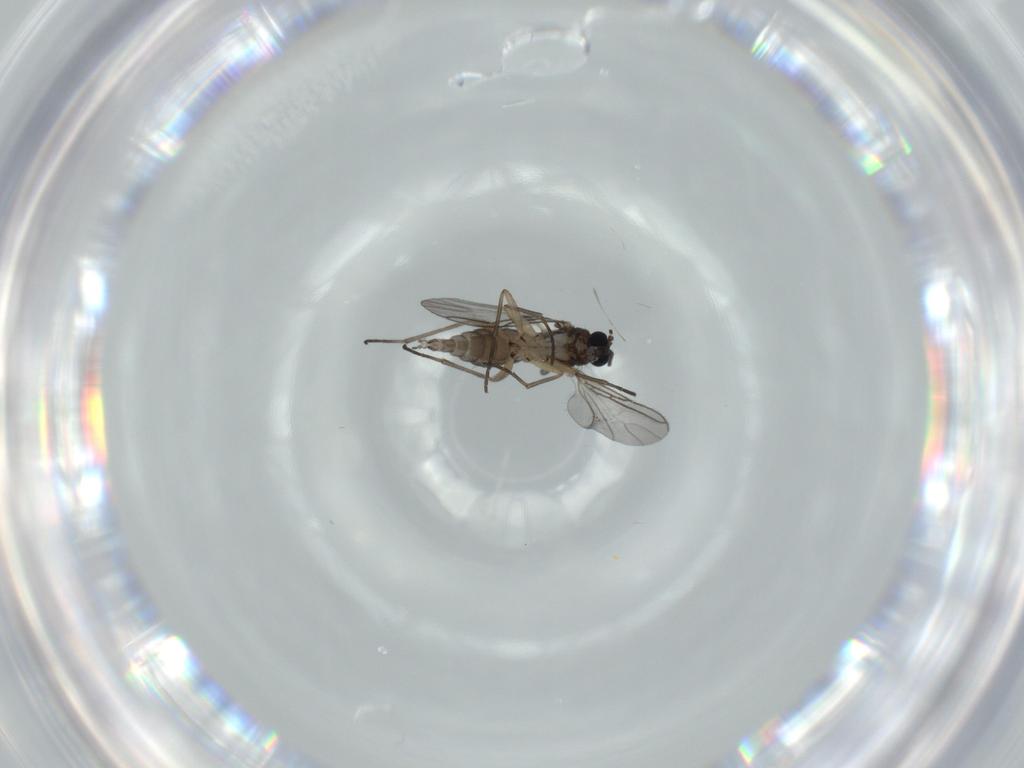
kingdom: Animalia
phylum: Arthropoda
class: Insecta
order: Diptera
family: Sciaridae
